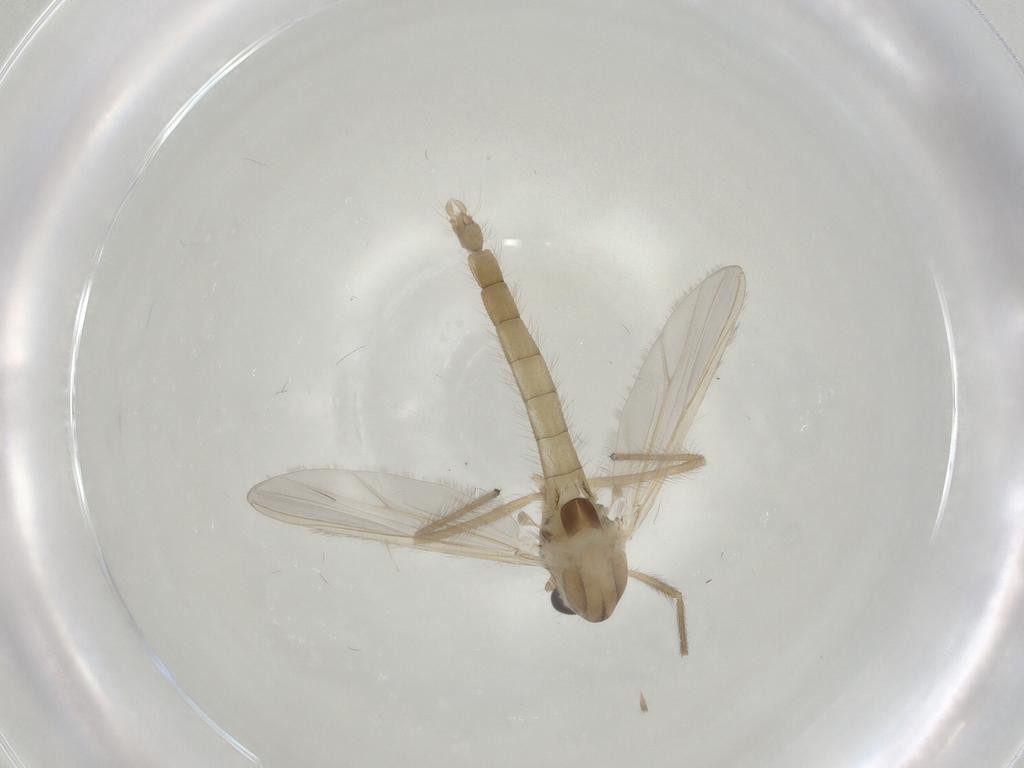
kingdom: Animalia
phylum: Arthropoda
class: Insecta
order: Diptera
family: Chironomidae
